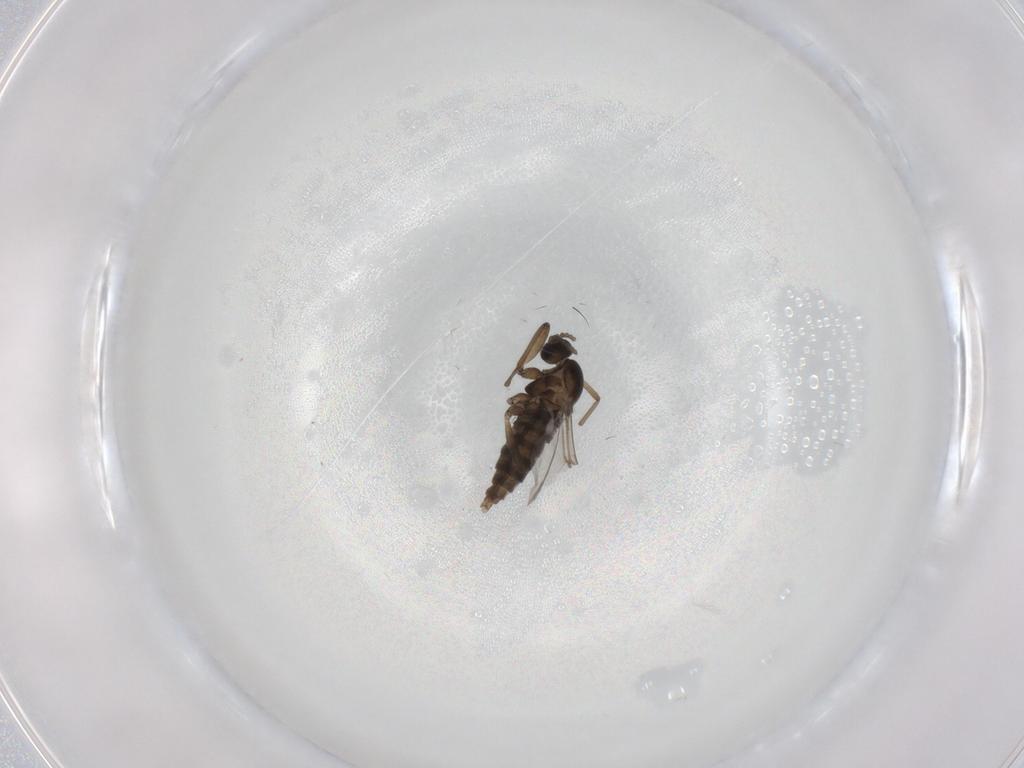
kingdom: Animalia
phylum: Arthropoda
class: Insecta
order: Diptera
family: Cecidomyiidae
